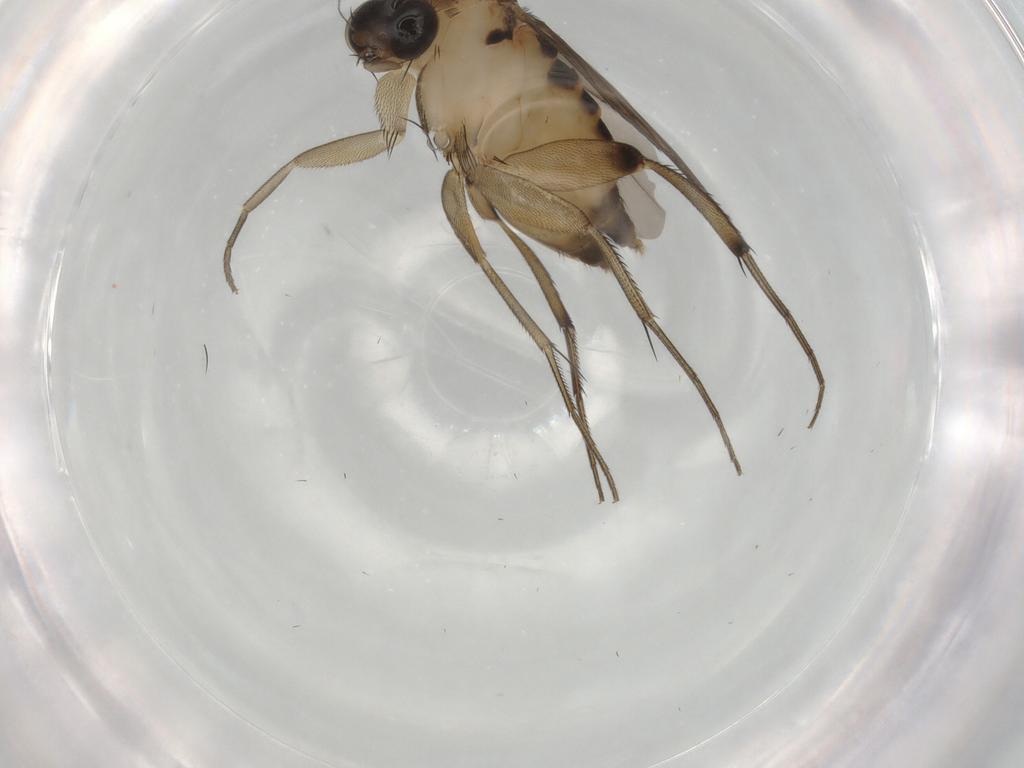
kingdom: Animalia
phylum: Arthropoda
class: Insecta
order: Diptera
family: Phoridae
